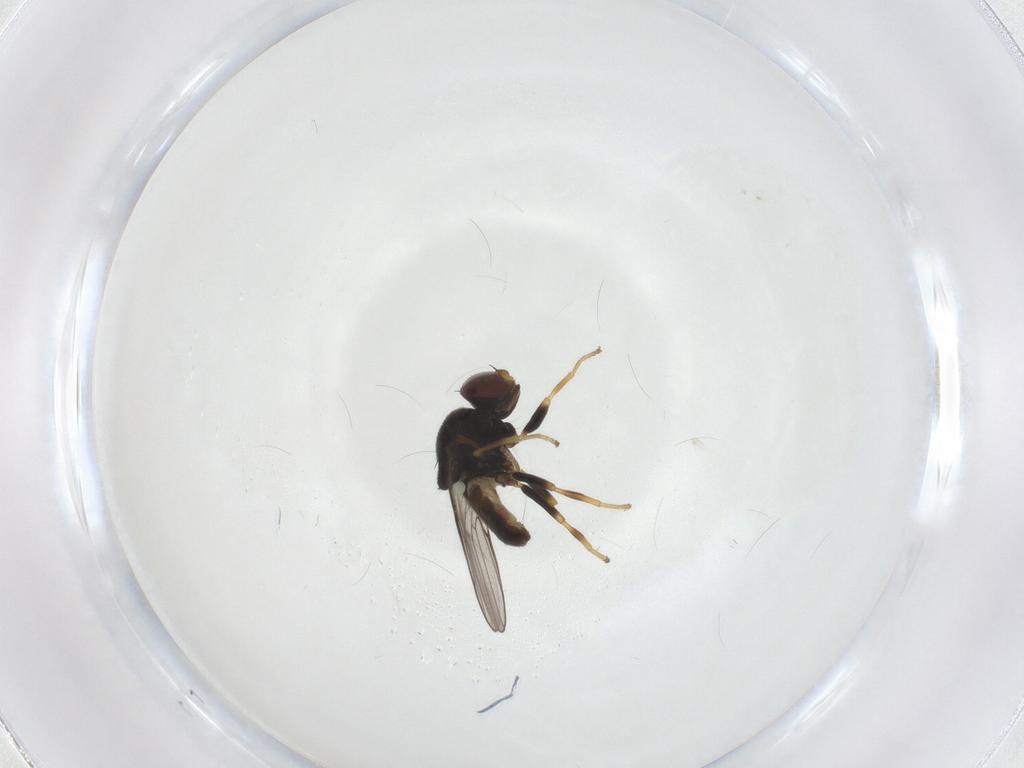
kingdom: Animalia
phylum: Arthropoda
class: Insecta
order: Diptera
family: Chloropidae
